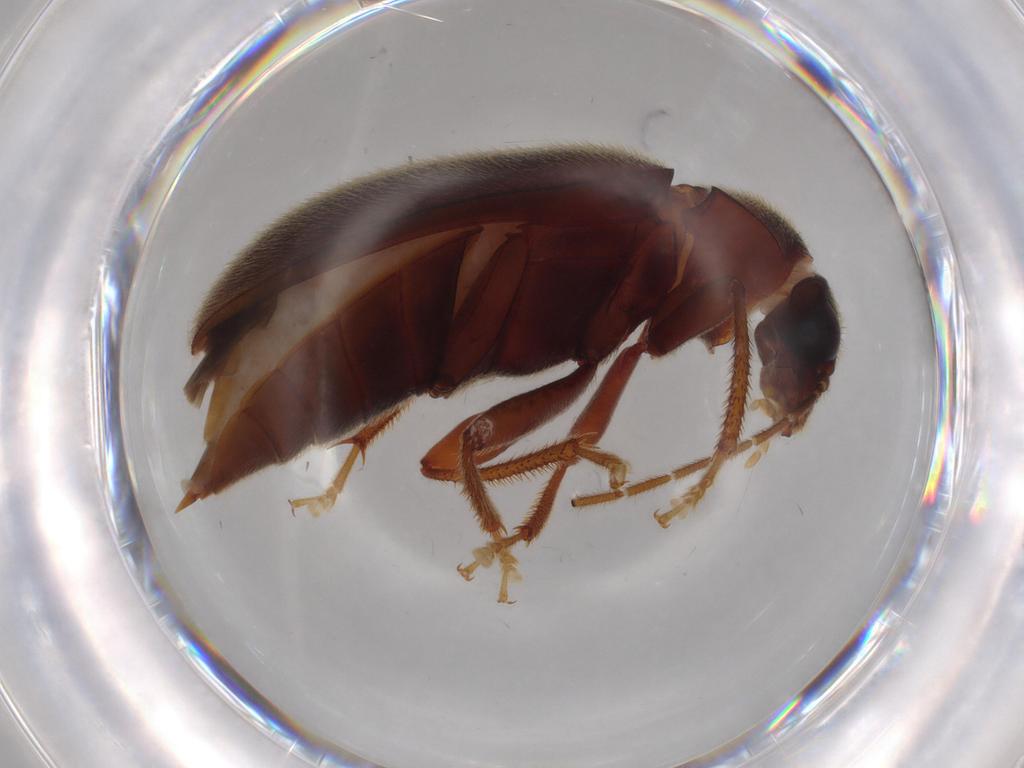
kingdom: Animalia
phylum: Arthropoda
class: Insecta
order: Coleoptera
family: Ptilodactylidae
